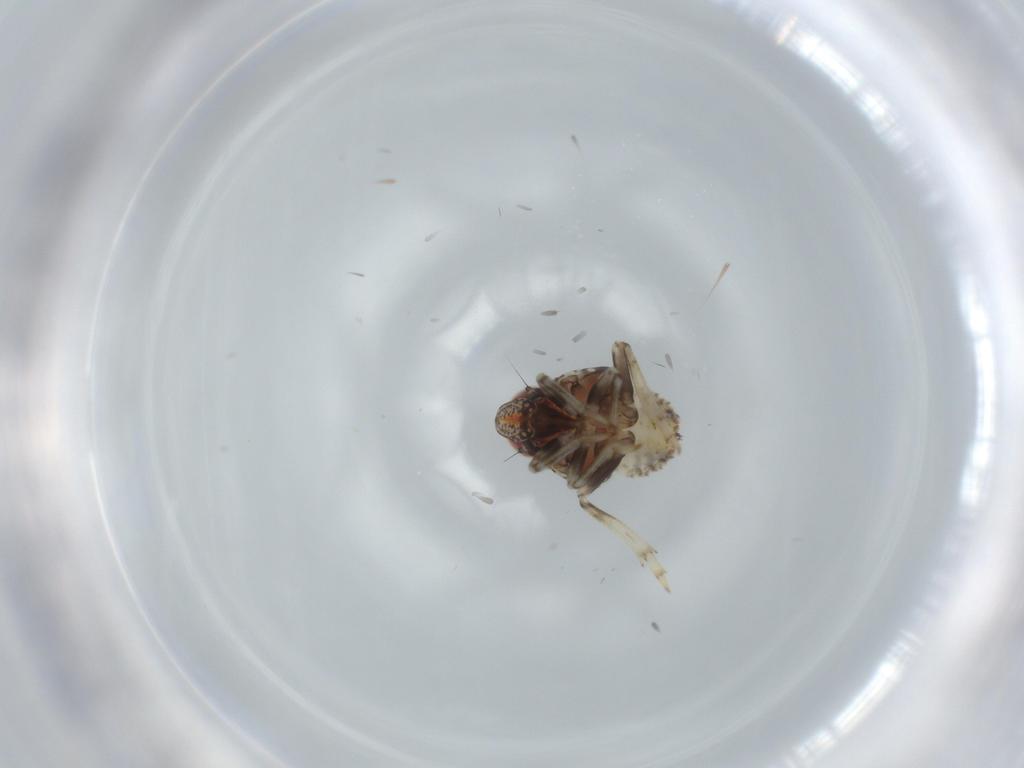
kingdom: Animalia
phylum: Arthropoda
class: Insecta
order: Hemiptera
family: Issidae
